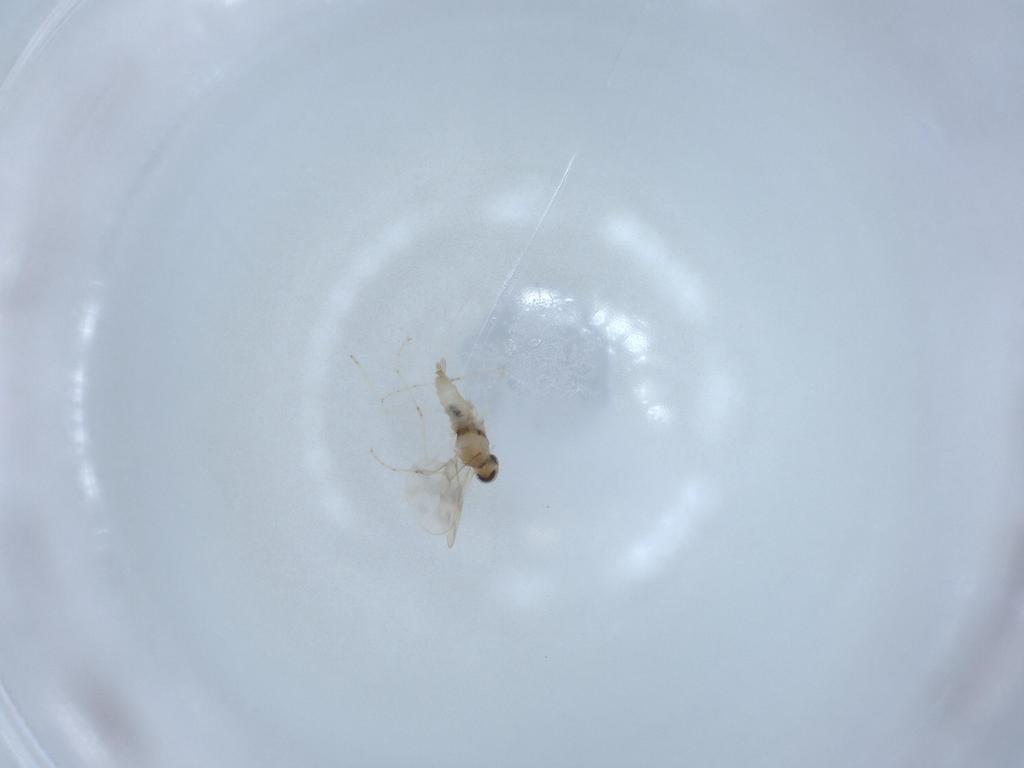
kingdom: Animalia
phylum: Arthropoda
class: Insecta
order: Diptera
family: Cecidomyiidae
